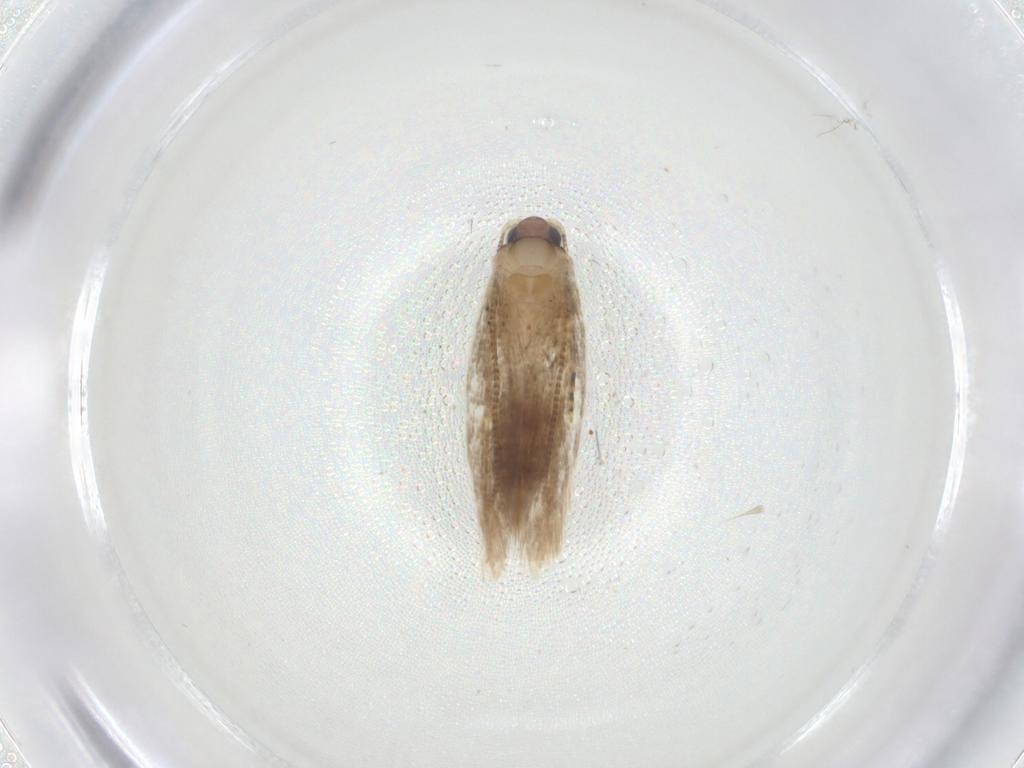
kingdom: Animalia
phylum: Arthropoda
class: Insecta
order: Lepidoptera
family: Tineidae
